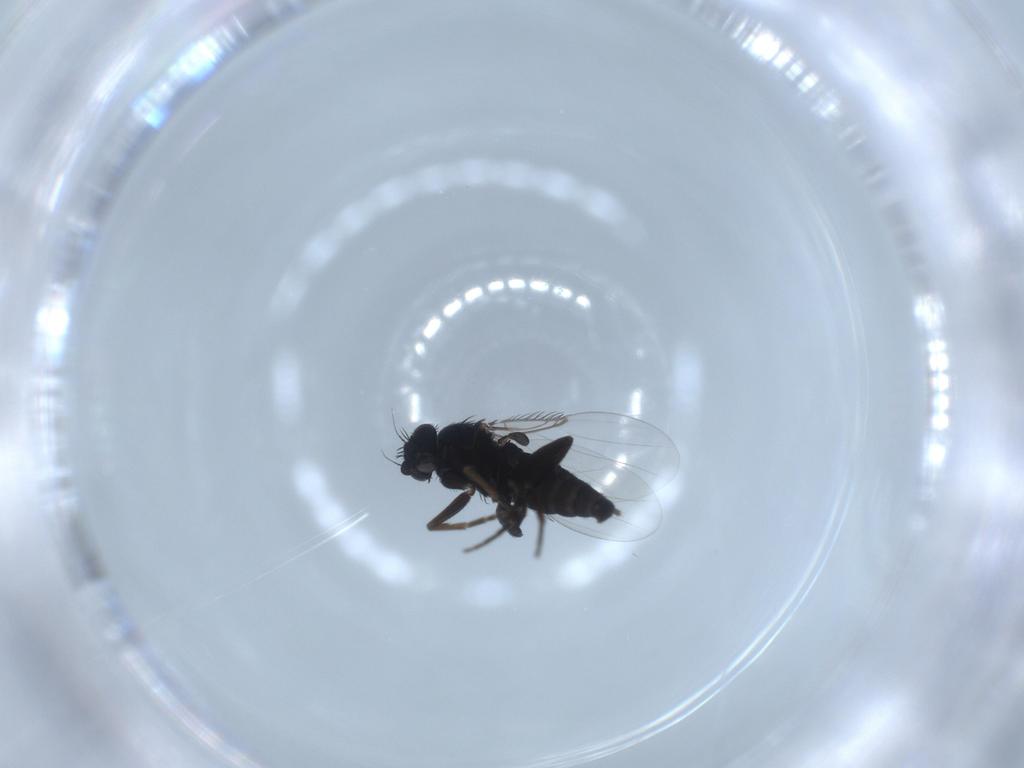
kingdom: Animalia
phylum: Arthropoda
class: Insecta
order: Diptera
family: Phoridae
